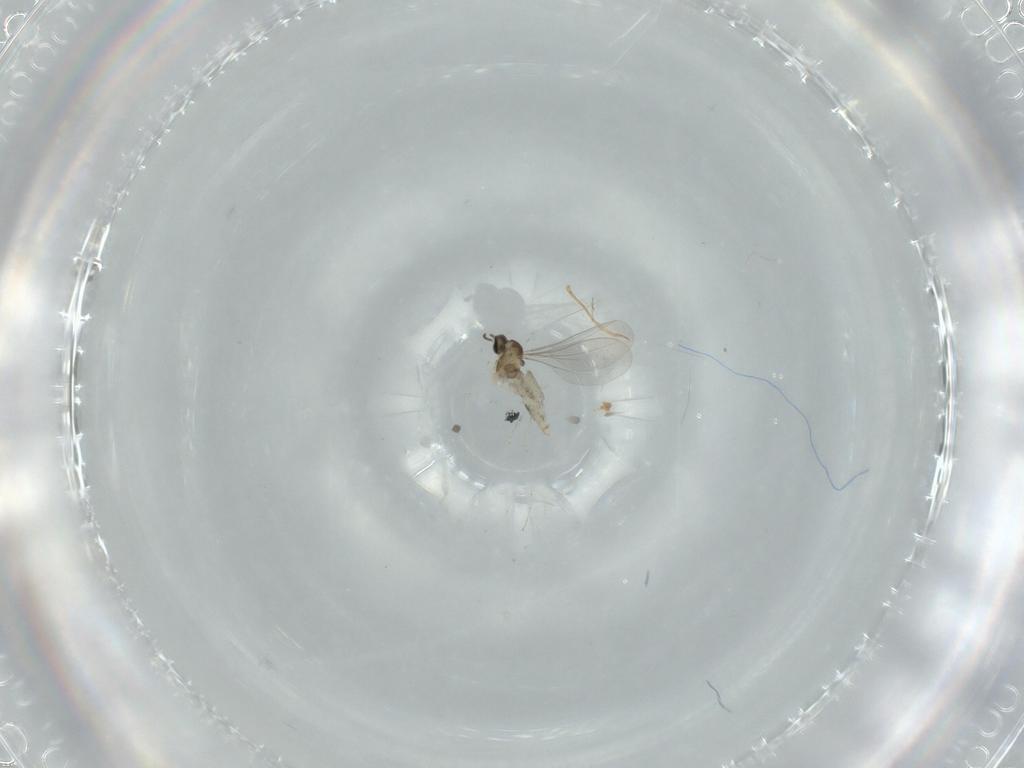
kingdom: Animalia
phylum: Arthropoda
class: Insecta
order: Diptera
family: Cecidomyiidae
